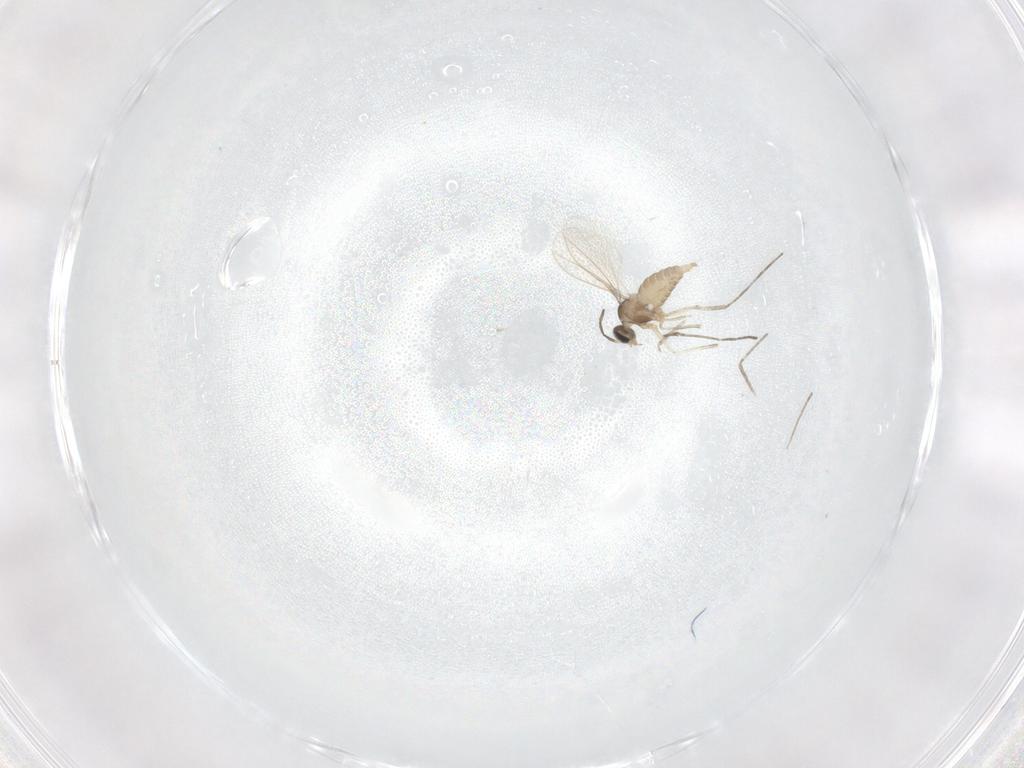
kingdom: Animalia
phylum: Arthropoda
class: Insecta
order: Diptera
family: Cecidomyiidae
